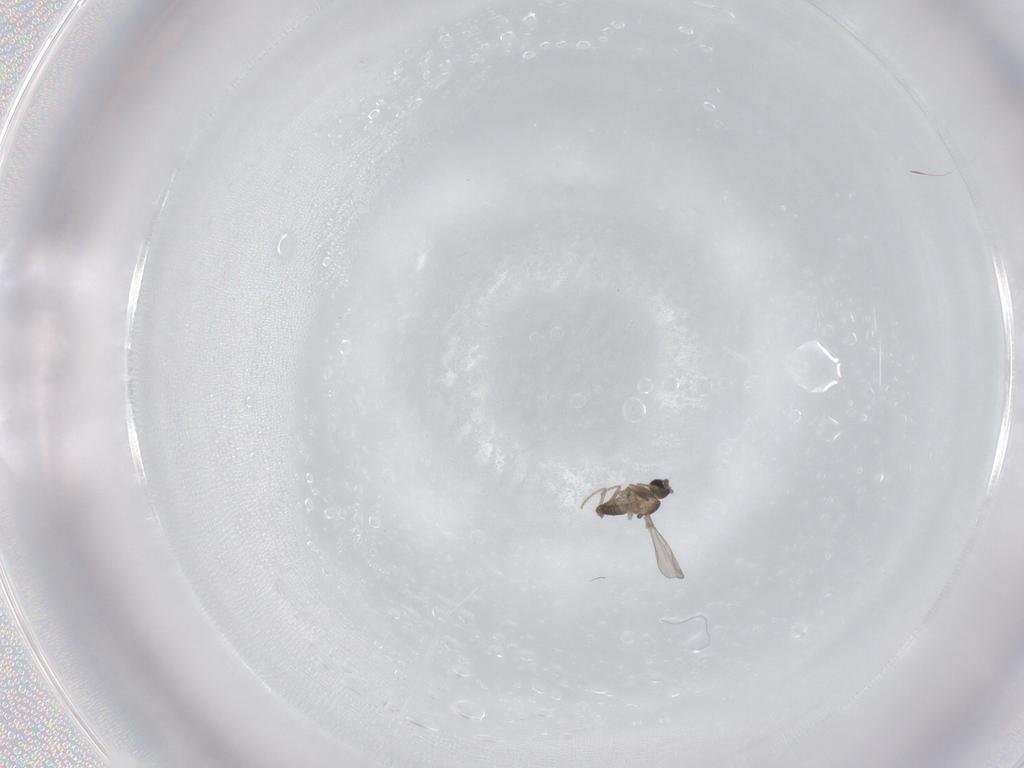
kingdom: Animalia
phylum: Arthropoda
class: Insecta
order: Diptera
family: Cecidomyiidae
